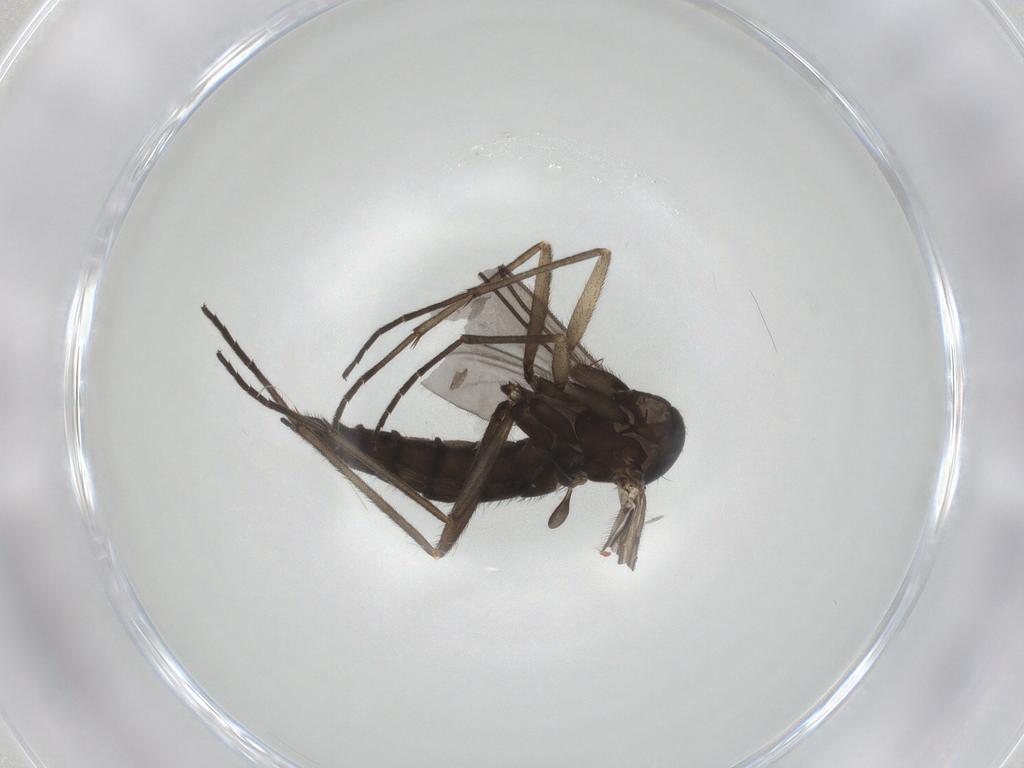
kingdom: Animalia
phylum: Arthropoda
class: Insecta
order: Diptera
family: Sciaridae
